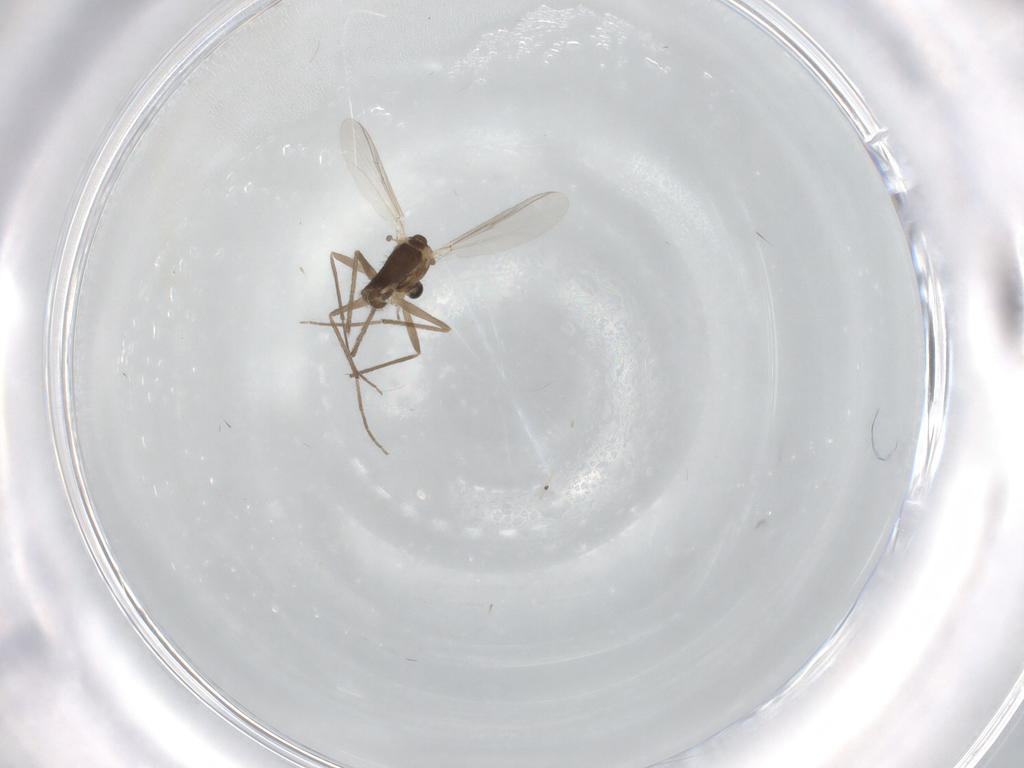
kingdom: Animalia
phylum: Arthropoda
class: Insecta
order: Diptera
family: Chironomidae
